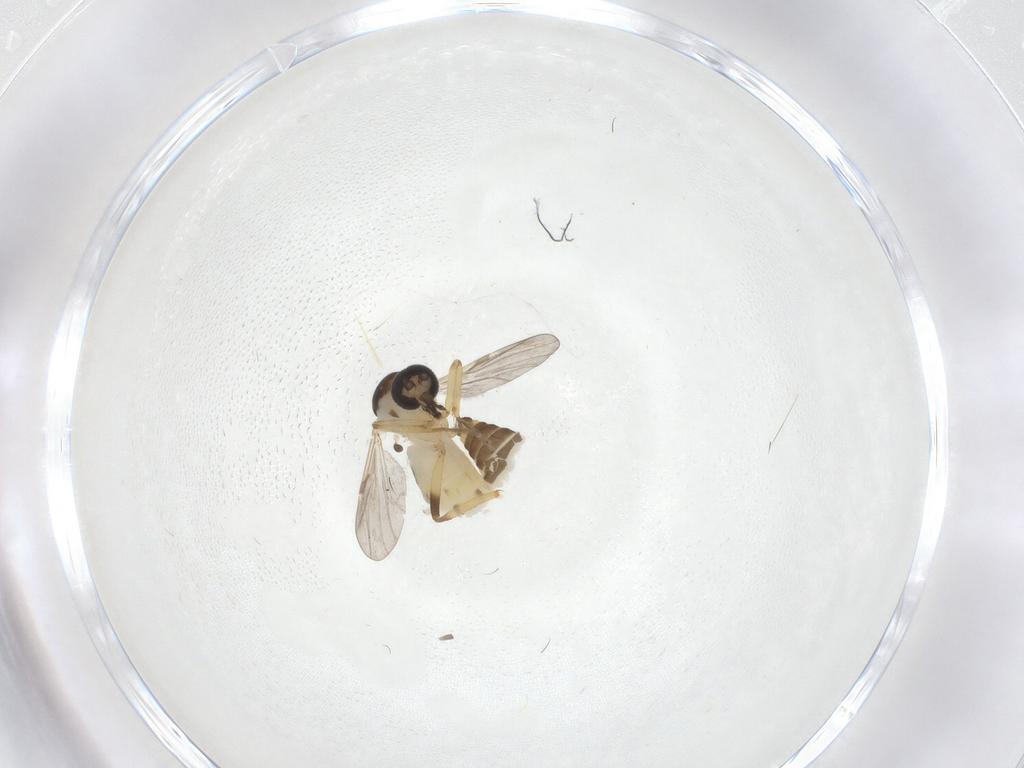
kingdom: Animalia
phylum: Arthropoda
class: Insecta
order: Diptera
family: Ceratopogonidae
